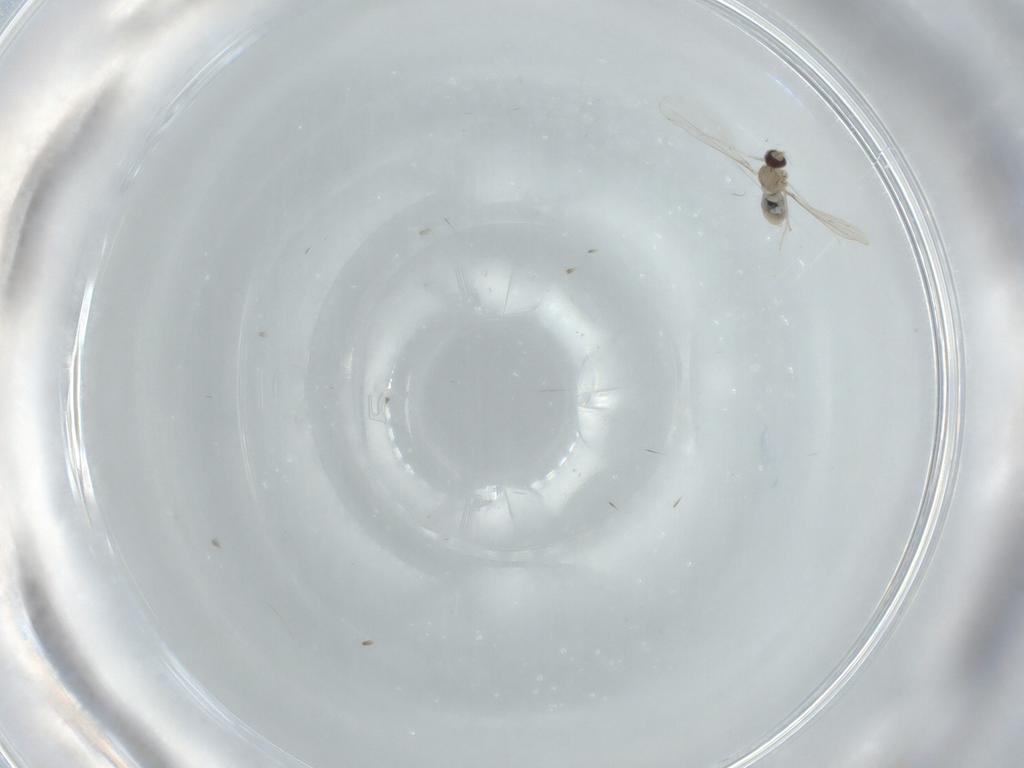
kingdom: Animalia
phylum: Arthropoda
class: Insecta
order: Diptera
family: Cecidomyiidae
